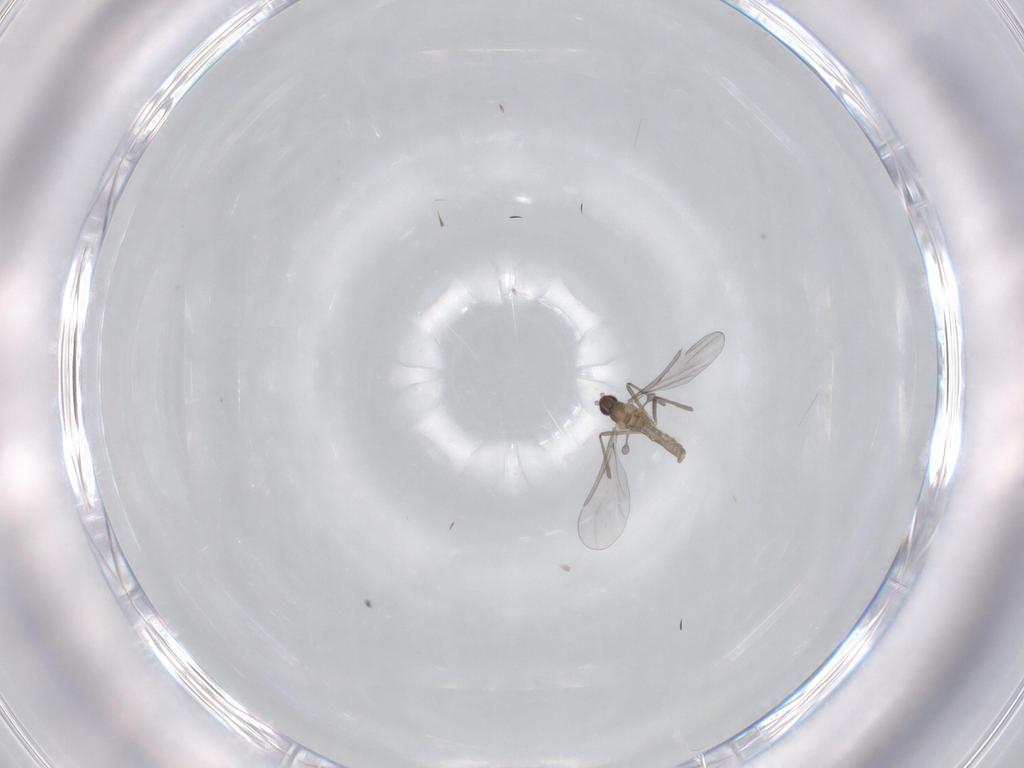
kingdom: Animalia
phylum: Arthropoda
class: Insecta
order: Diptera
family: Cecidomyiidae
